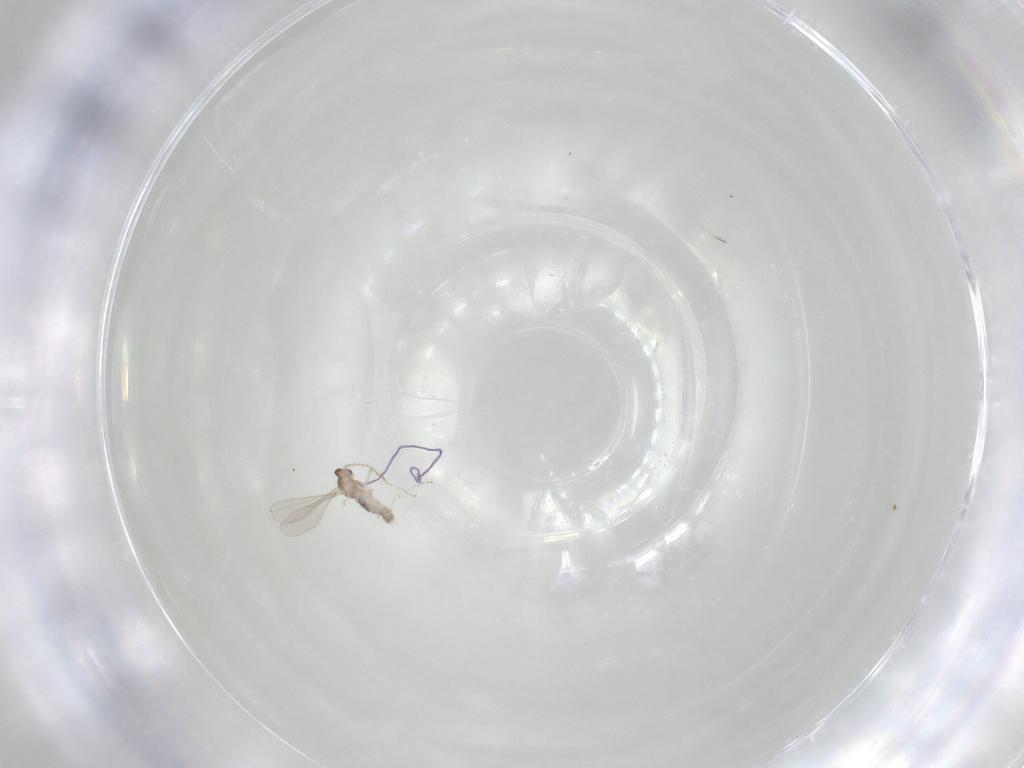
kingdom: Animalia
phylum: Arthropoda
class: Insecta
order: Diptera
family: Cecidomyiidae
